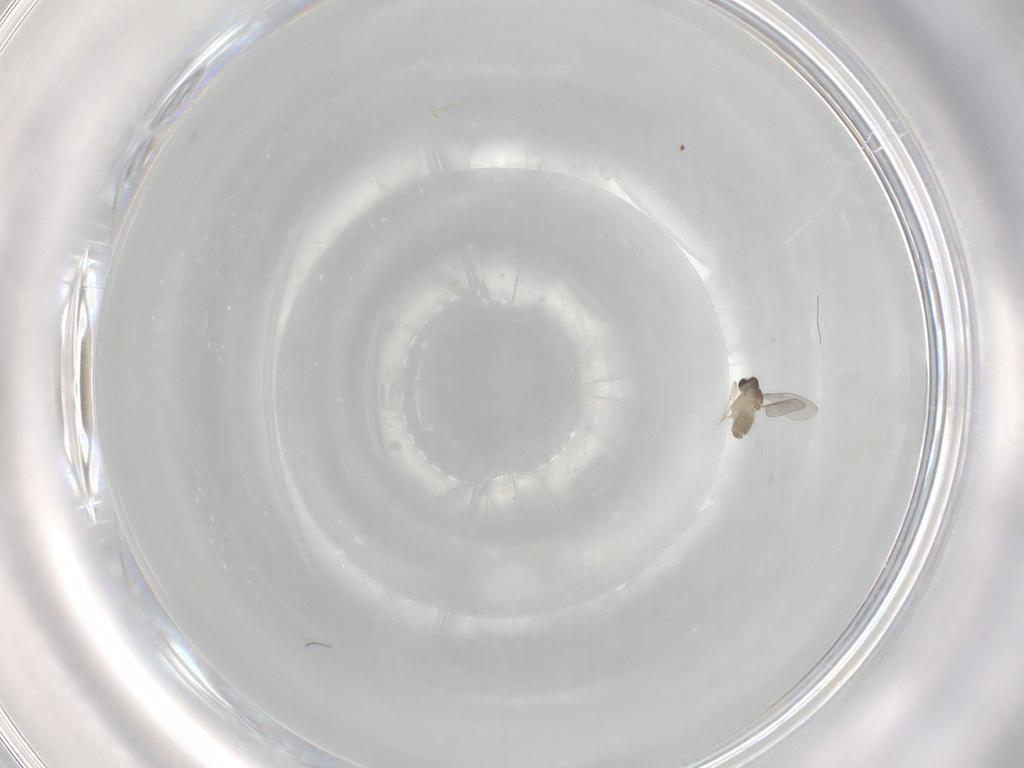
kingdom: Animalia
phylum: Arthropoda
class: Insecta
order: Diptera
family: Cecidomyiidae
